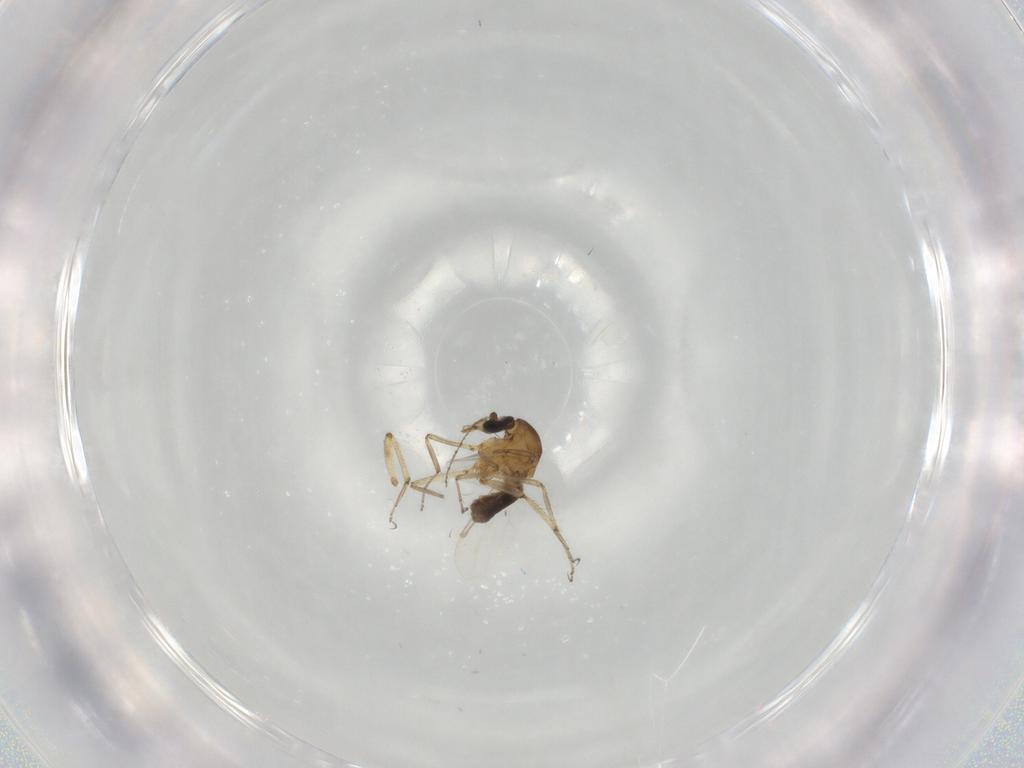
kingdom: Animalia
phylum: Arthropoda
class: Insecta
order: Diptera
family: Ceratopogonidae
